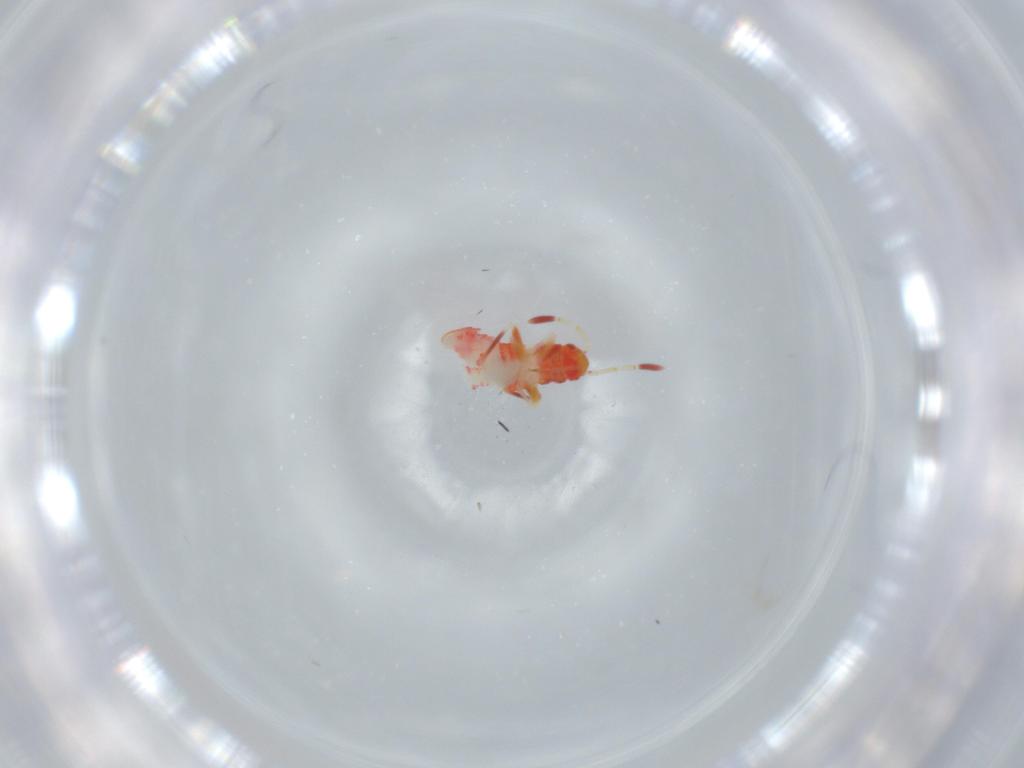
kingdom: Animalia
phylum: Arthropoda
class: Insecta
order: Hemiptera
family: Miridae
